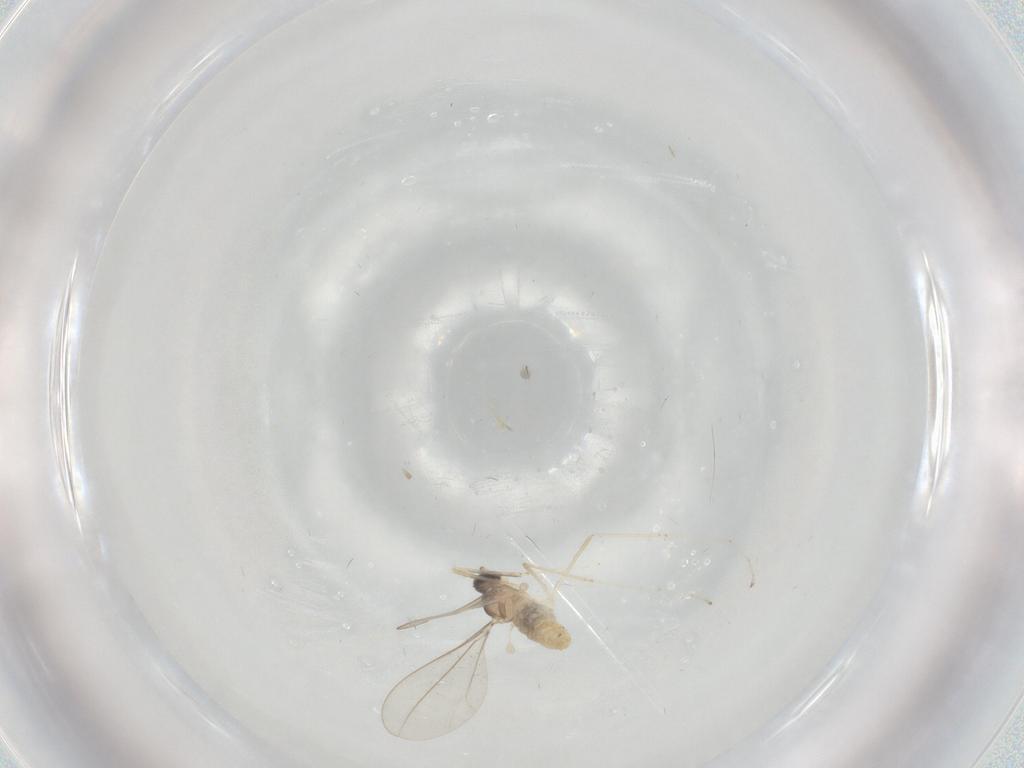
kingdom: Animalia
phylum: Arthropoda
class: Insecta
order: Diptera
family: Cecidomyiidae
